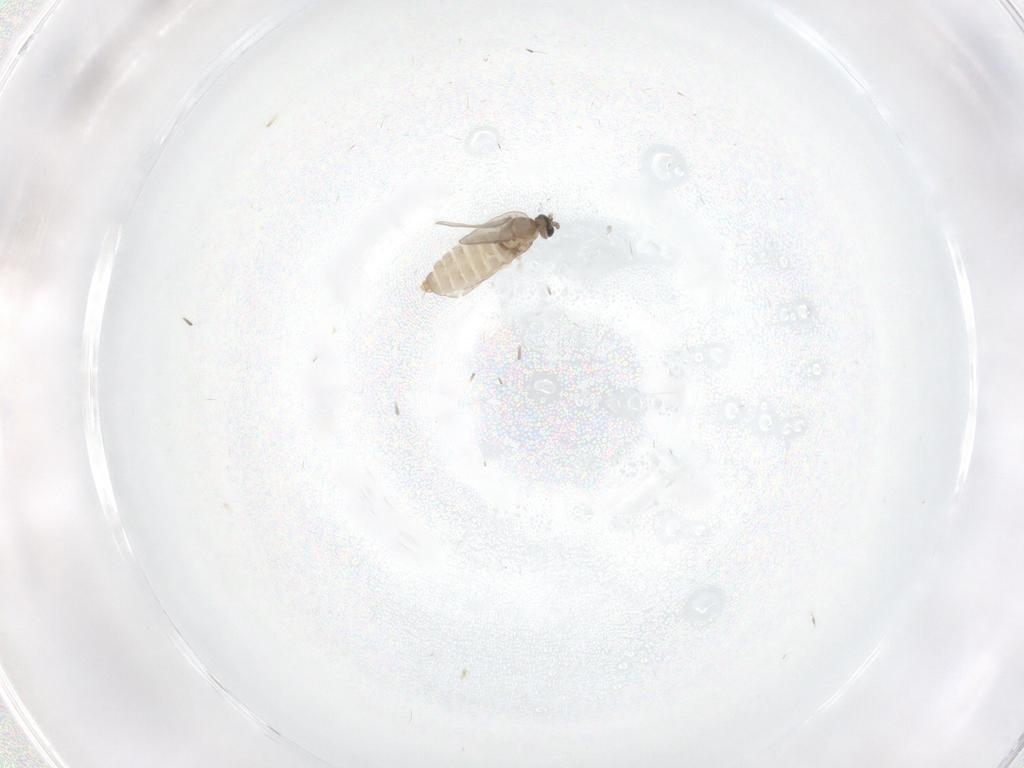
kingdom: Animalia
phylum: Arthropoda
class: Insecta
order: Diptera
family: Cecidomyiidae
